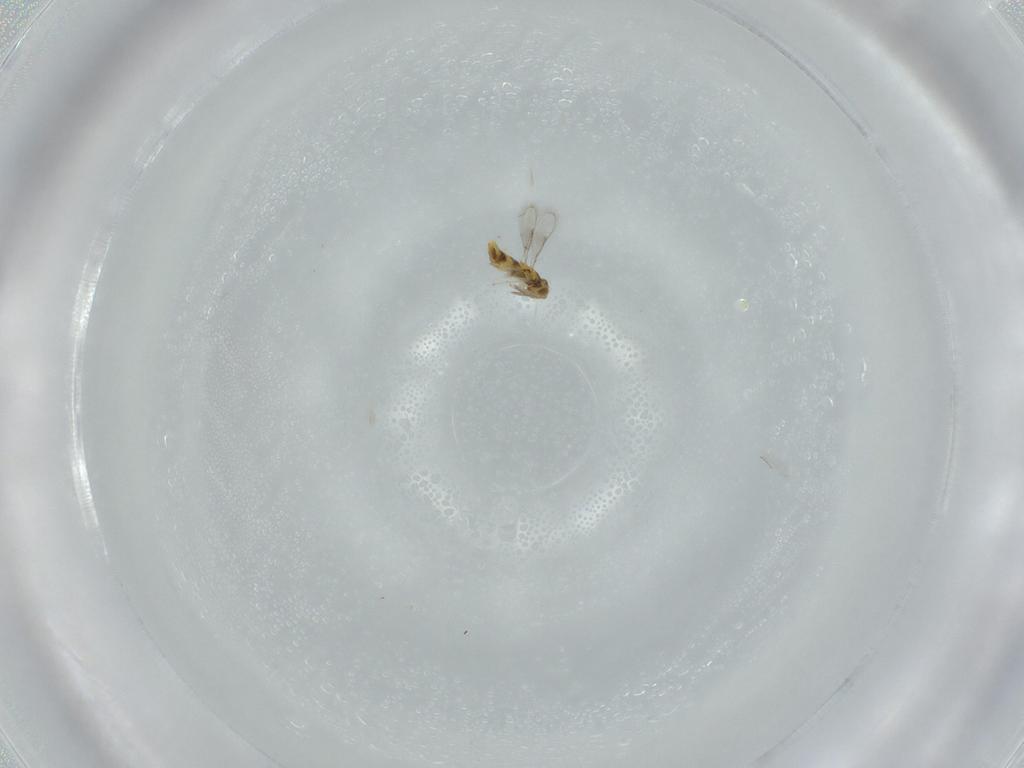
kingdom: Animalia
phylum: Arthropoda
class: Insecta
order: Hymenoptera
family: Aphelinidae
